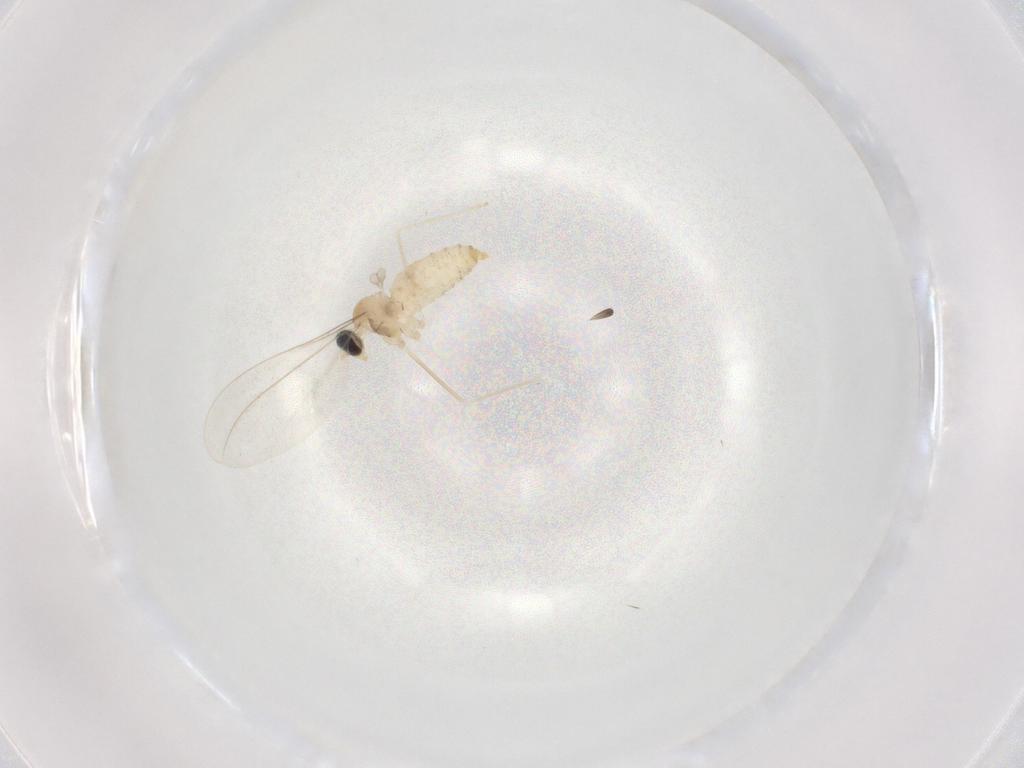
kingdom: Animalia
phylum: Arthropoda
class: Insecta
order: Diptera
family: Cecidomyiidae
